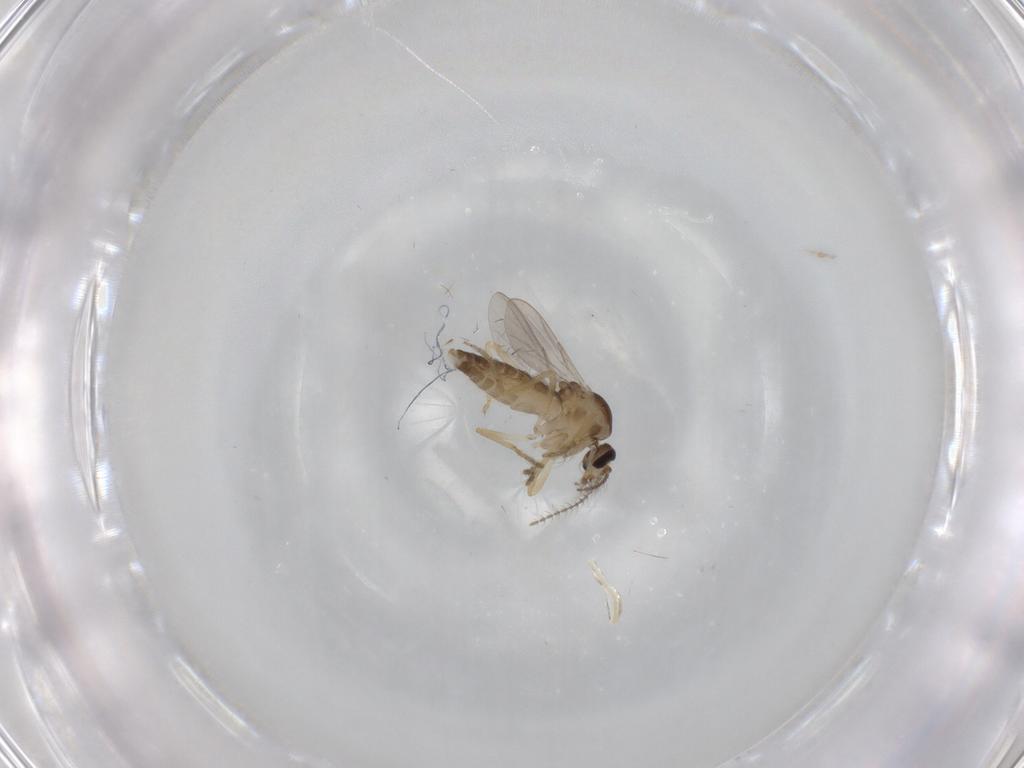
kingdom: Animalia
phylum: Arthropoda
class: Insecta
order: Diptera
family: Ceratopogonidae
